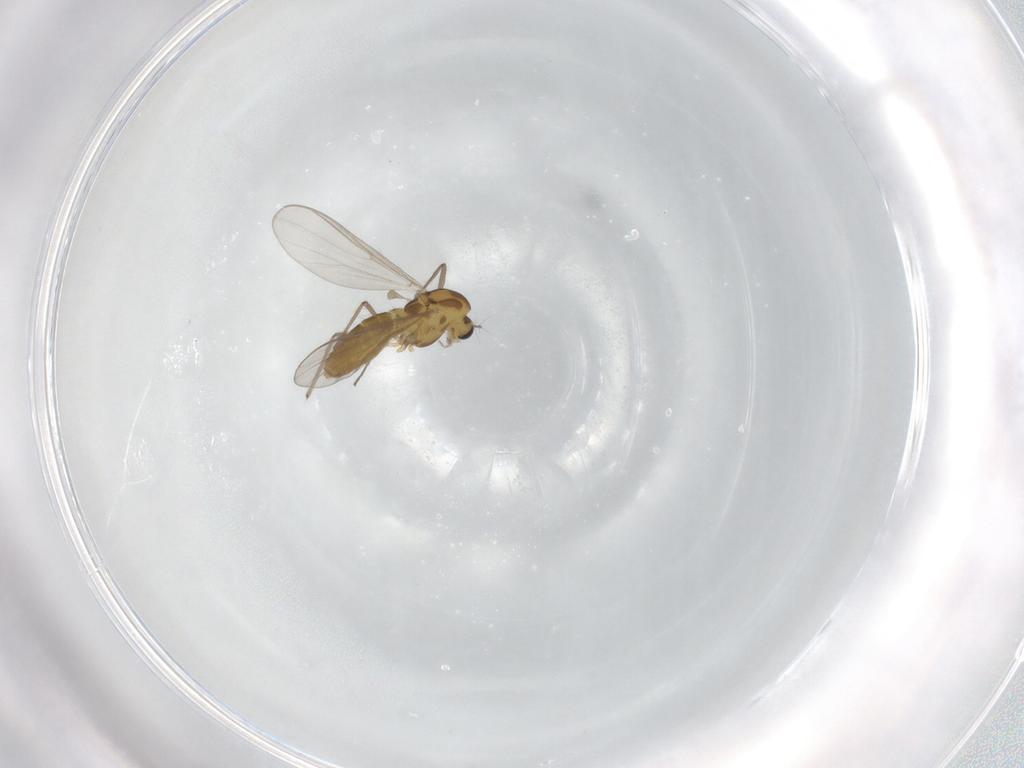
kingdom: Animalia
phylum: Arthropoda
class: Insecta
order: Diptera
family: Chironomidae
